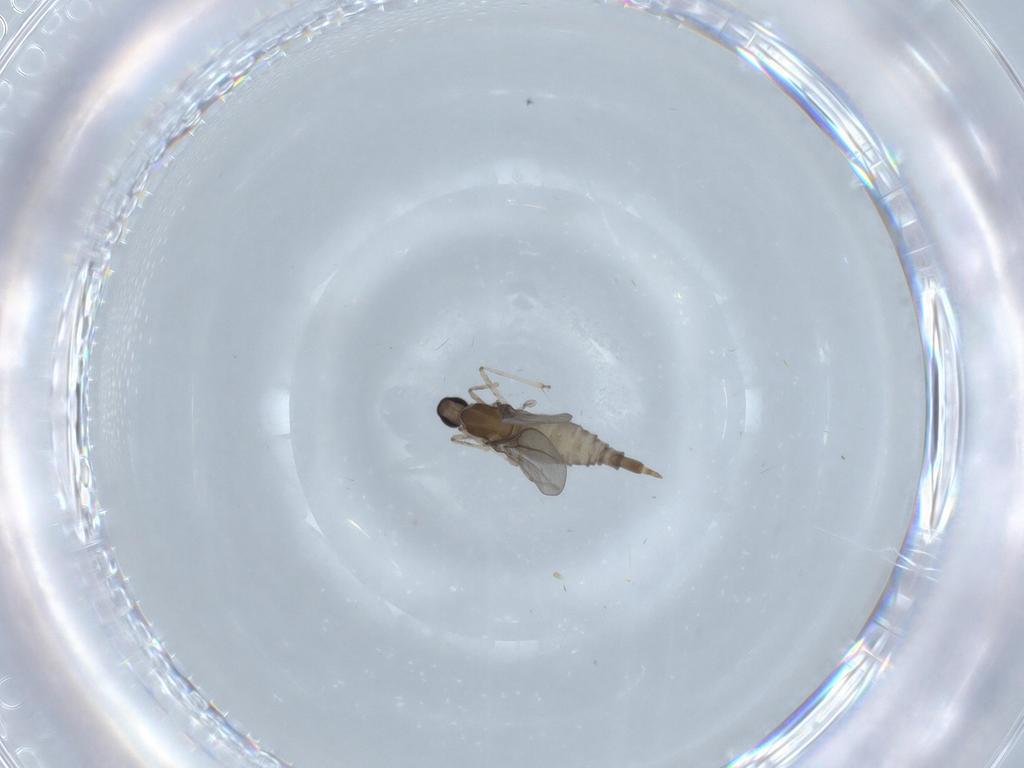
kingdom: Animalia
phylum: Arthropoda
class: Insecta
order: Diptera
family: Cecidomyiidae
